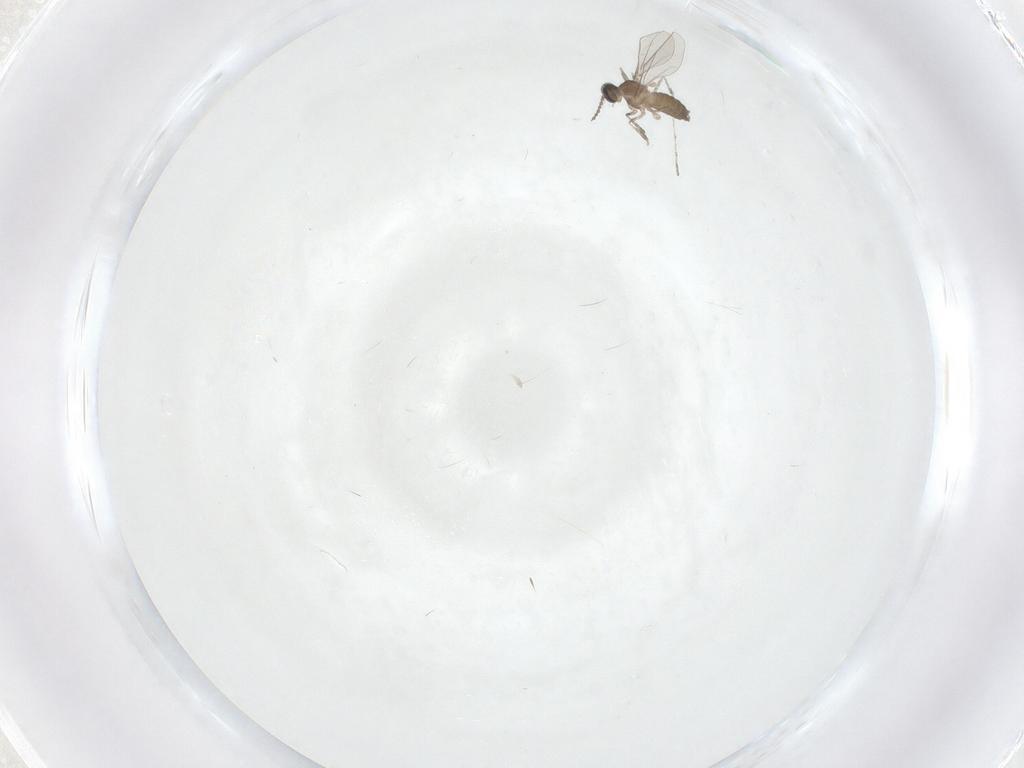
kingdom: Animalia
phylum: Arthropoda
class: Insecta
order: Diptera
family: Cecidomyiidae
